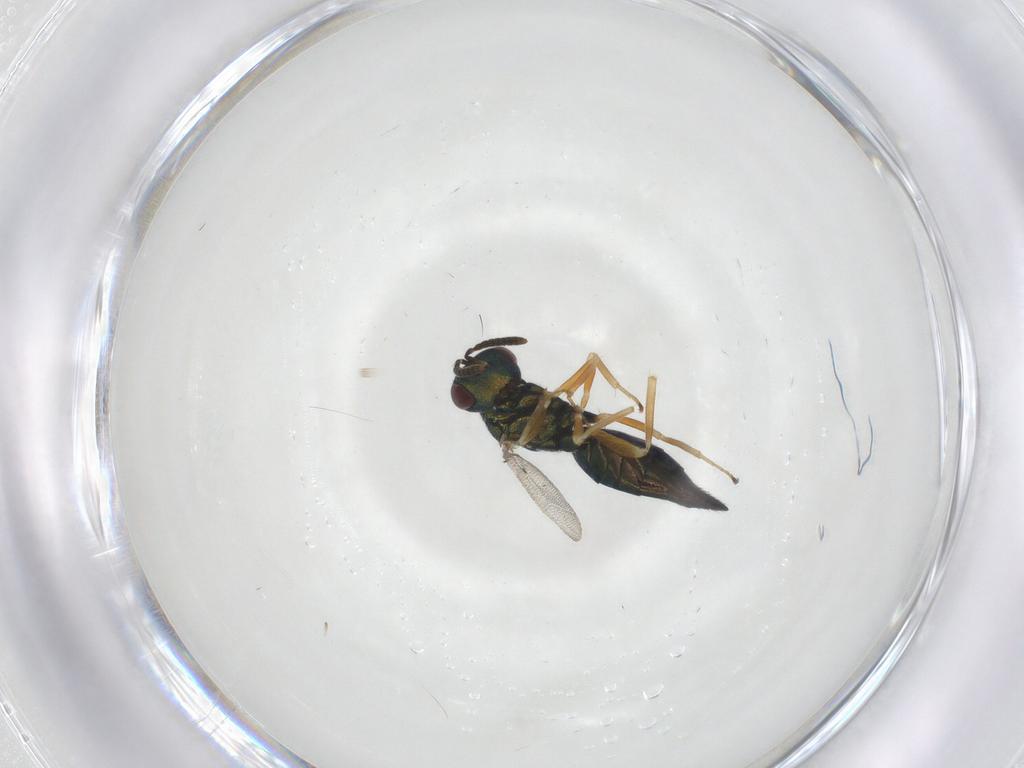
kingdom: Animalia
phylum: Arthropoda
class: Insecta
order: Hymenoptera
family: Pteromalidae
